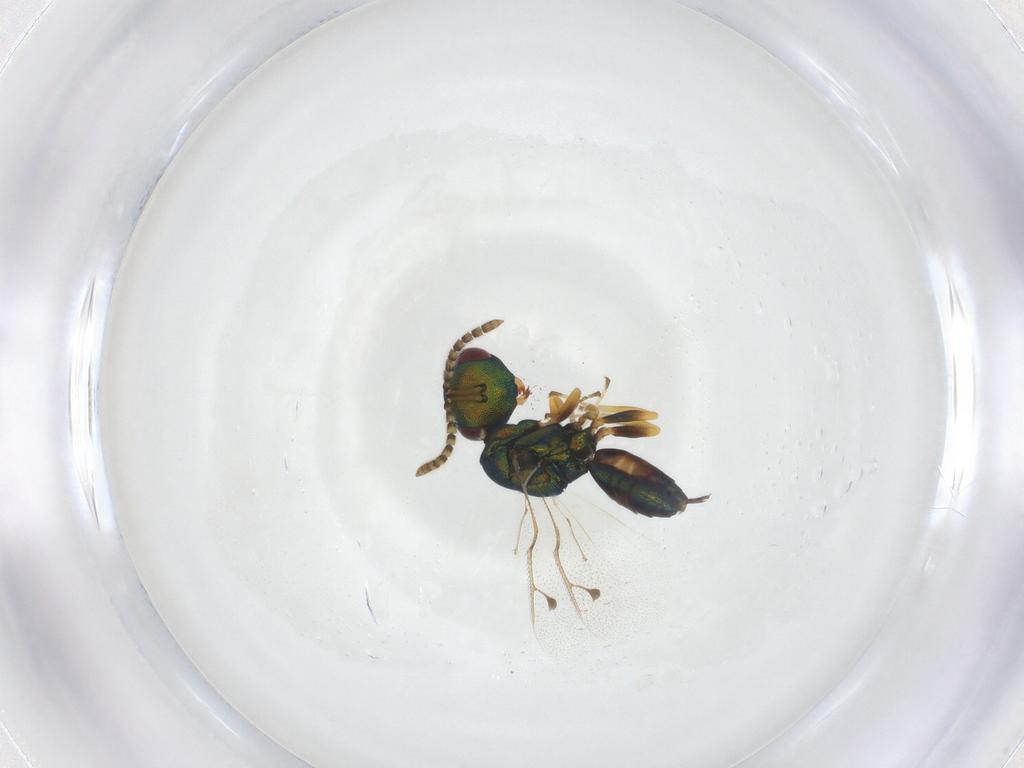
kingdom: Animalia
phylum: Arthropoda
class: Insecta
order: Hymenoptera
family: Pteromalidae
